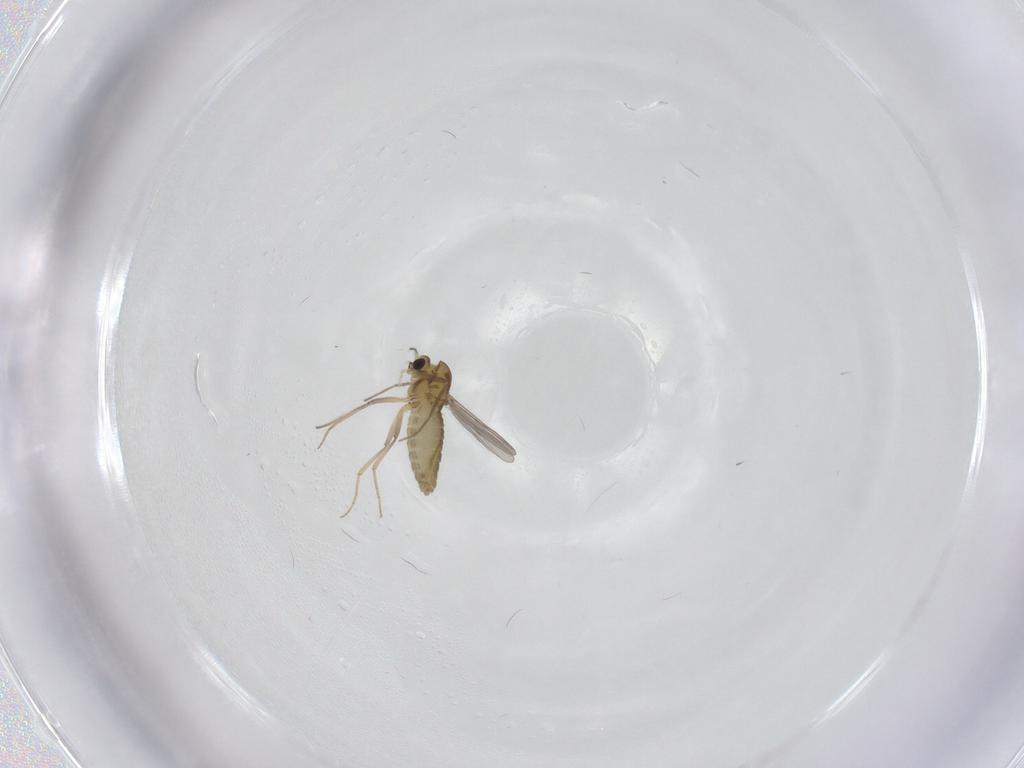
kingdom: Animalia
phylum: Arthropoda
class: Insecta
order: Diptera
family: Chironomidae
